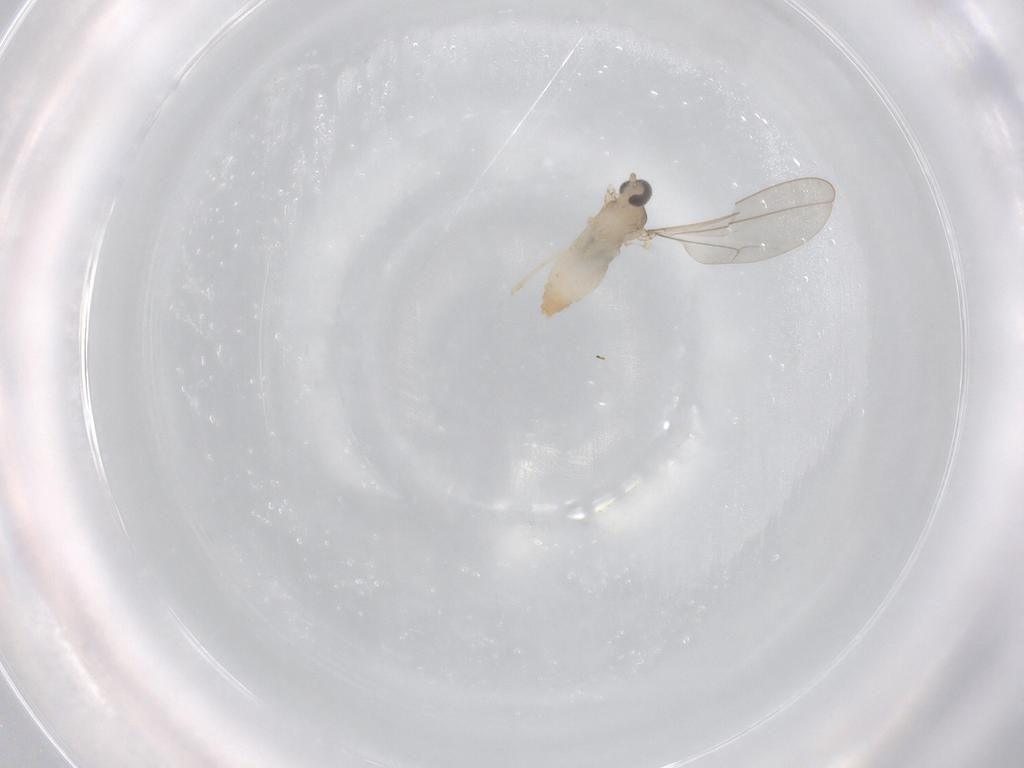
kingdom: Animalia
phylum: Arthropoda
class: Insecta
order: Diptera
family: Cecidomyiidae
